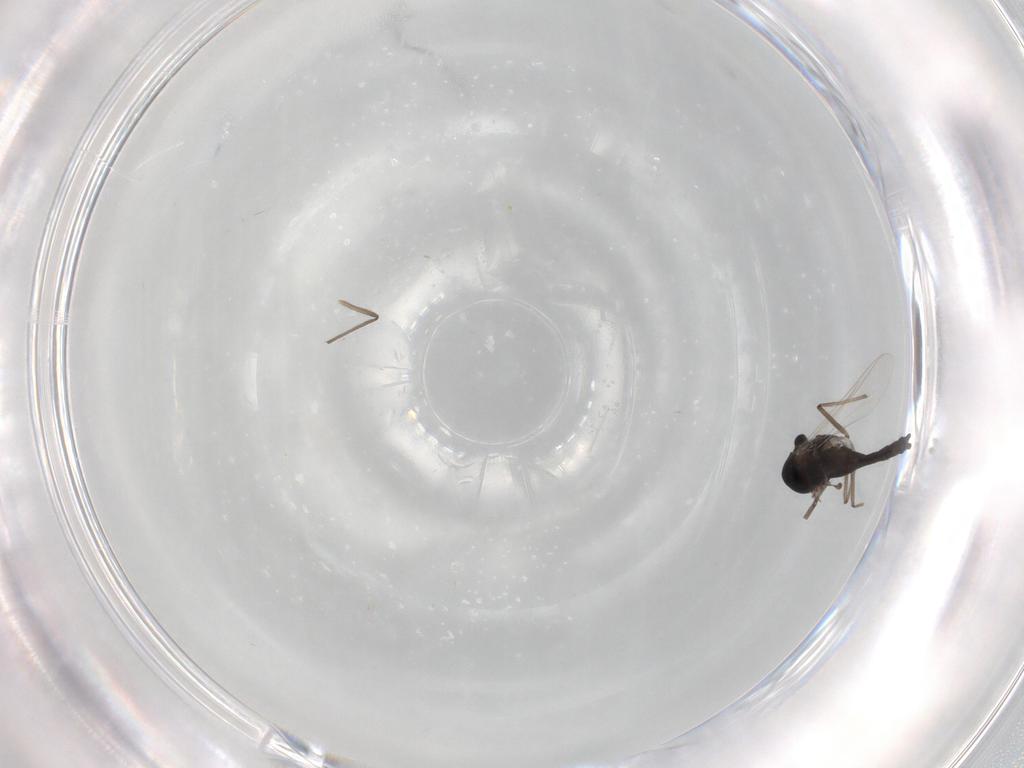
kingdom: Animalia
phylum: Arthropoda
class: Insecta
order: Diptera
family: Chironomidae
